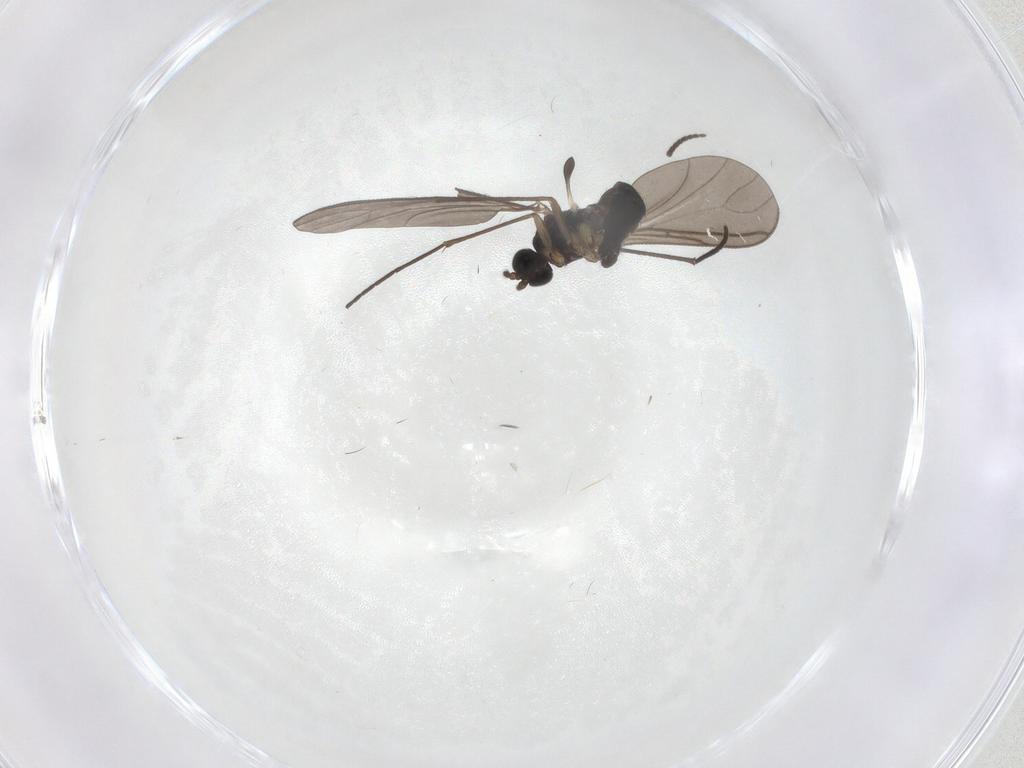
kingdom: Animalia
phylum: Arthropoda
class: Insecta
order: Diptera
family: Sciaridae
